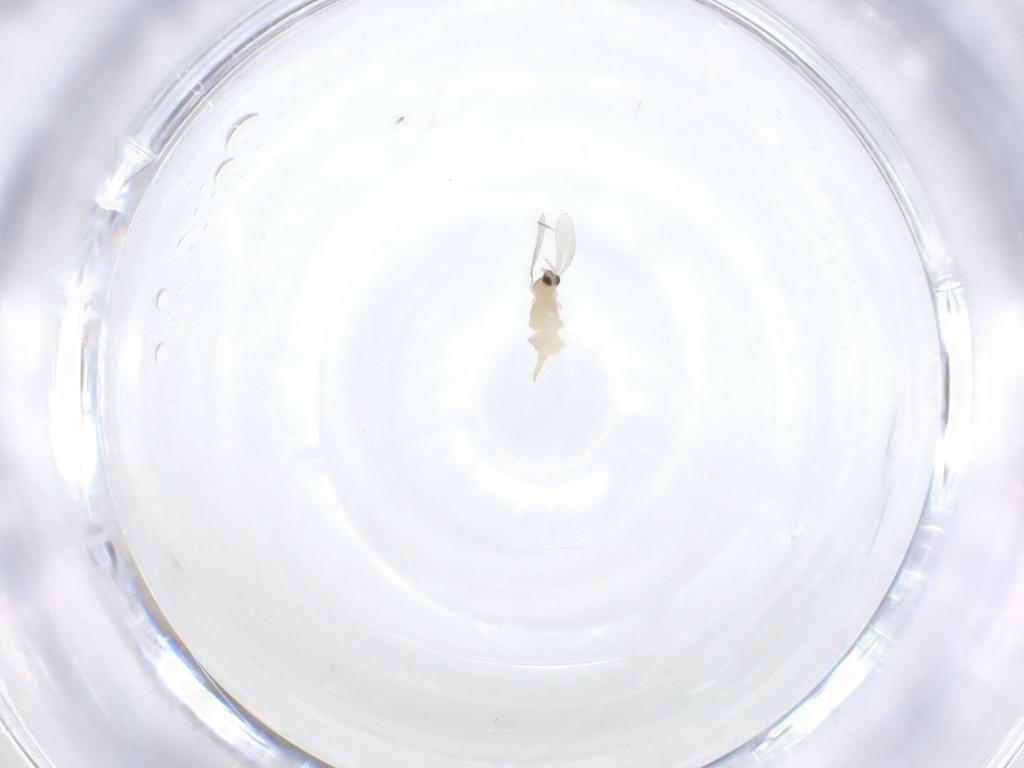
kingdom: Animalia
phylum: Arthropoda
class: Insecta
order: Diptera
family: Cecidomyiidae
